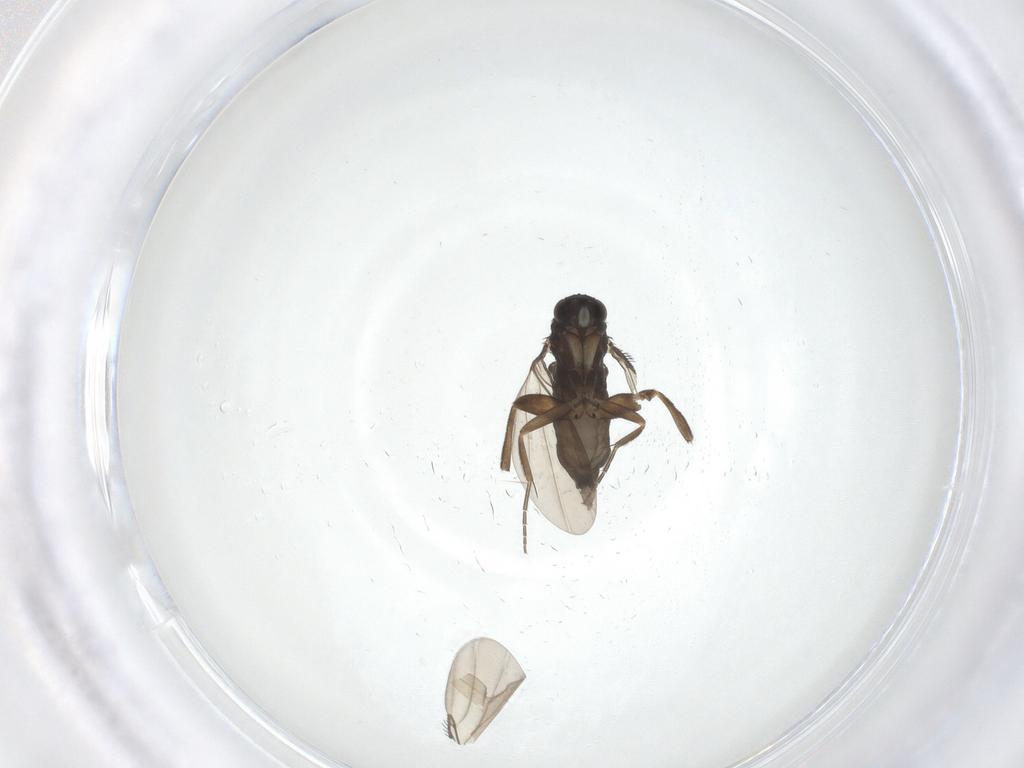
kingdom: Animalia
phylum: Arthropoda
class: Insecta
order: Diptera
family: Phoridae
